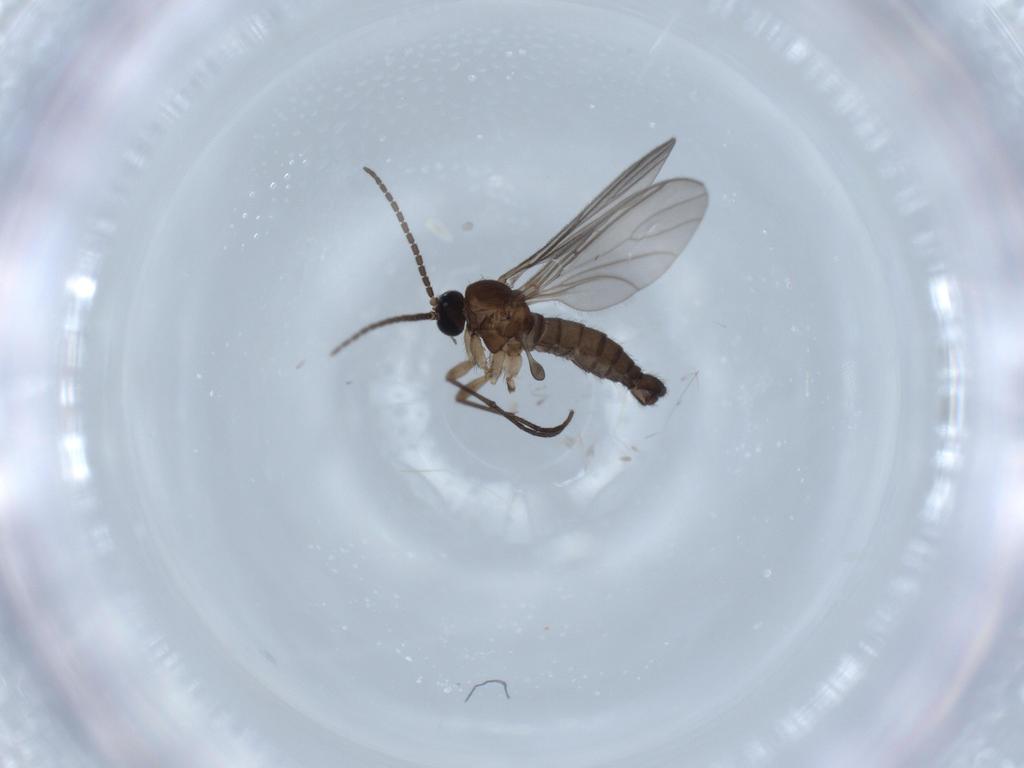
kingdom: Animalia
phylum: Arthropoda
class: Insecta
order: Diptera
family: Sciaridae
